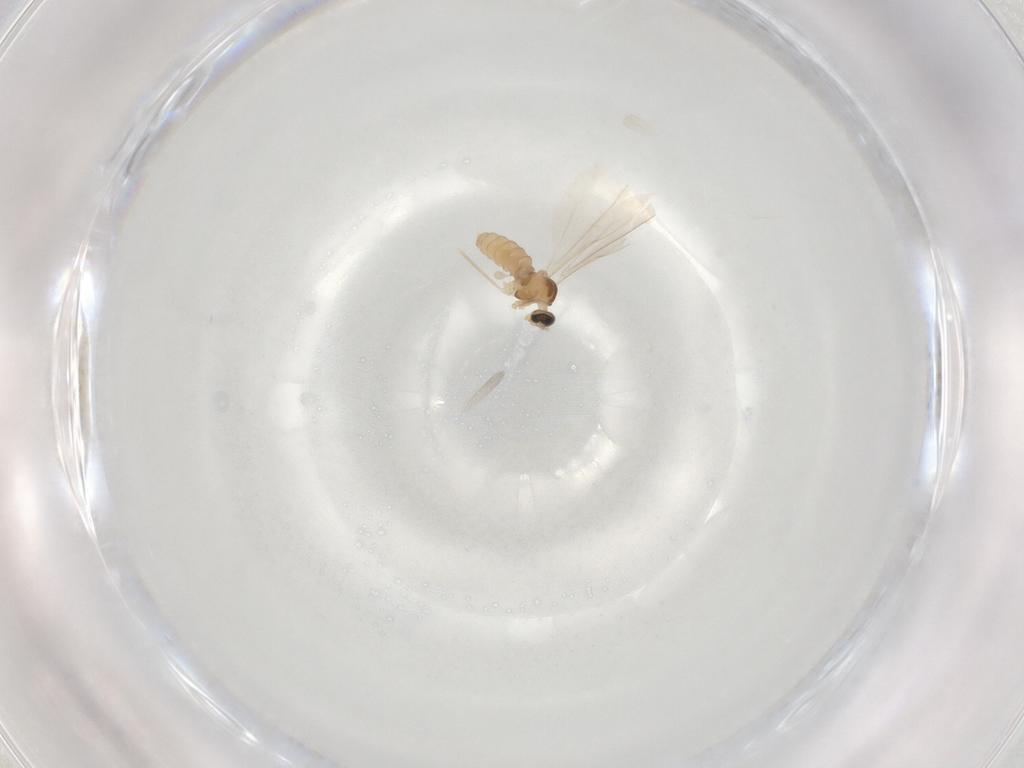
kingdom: Animalia
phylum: Arthropoda
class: Insecta
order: Diptera
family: Cecidomyiidae
